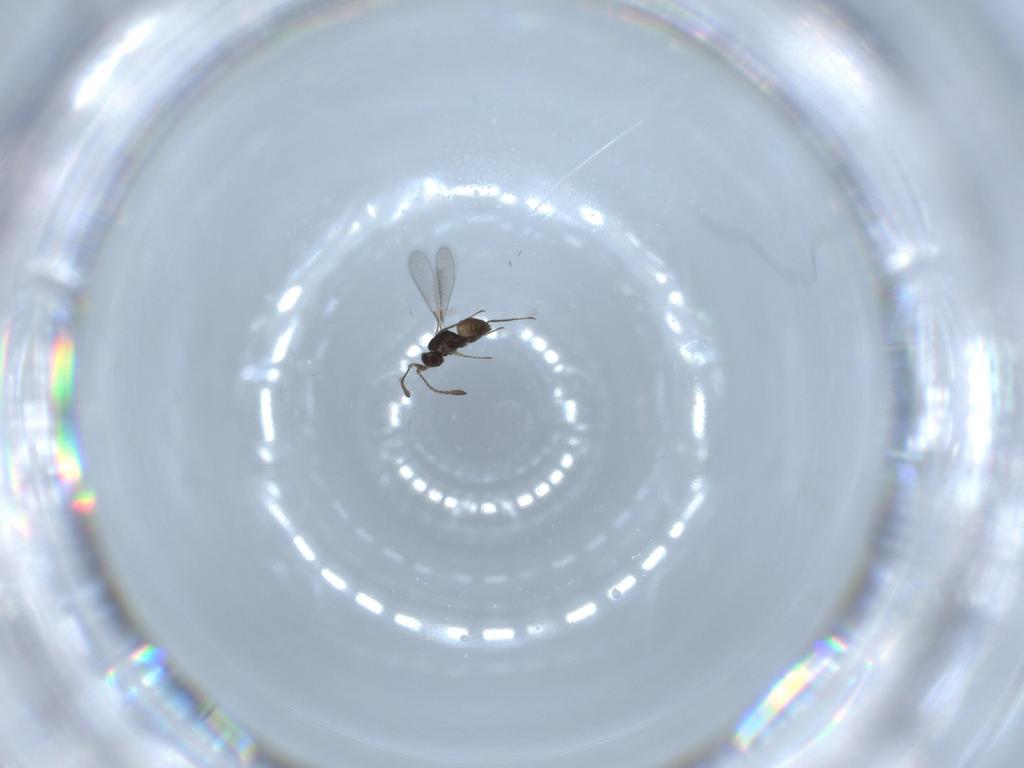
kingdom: Animalia
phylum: Arthropoda
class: Insecta
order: Hymenoptera
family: Mymaridae
